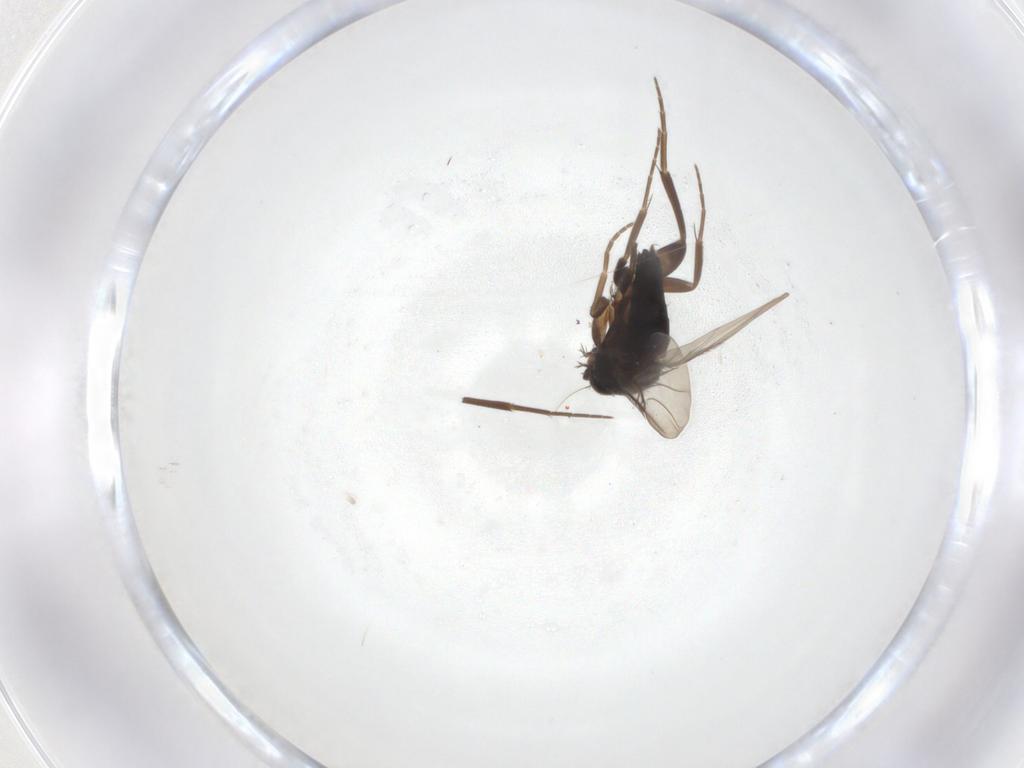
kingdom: Animalia
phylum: Arthropoda
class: Insecta
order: Diptera
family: Phoridae
